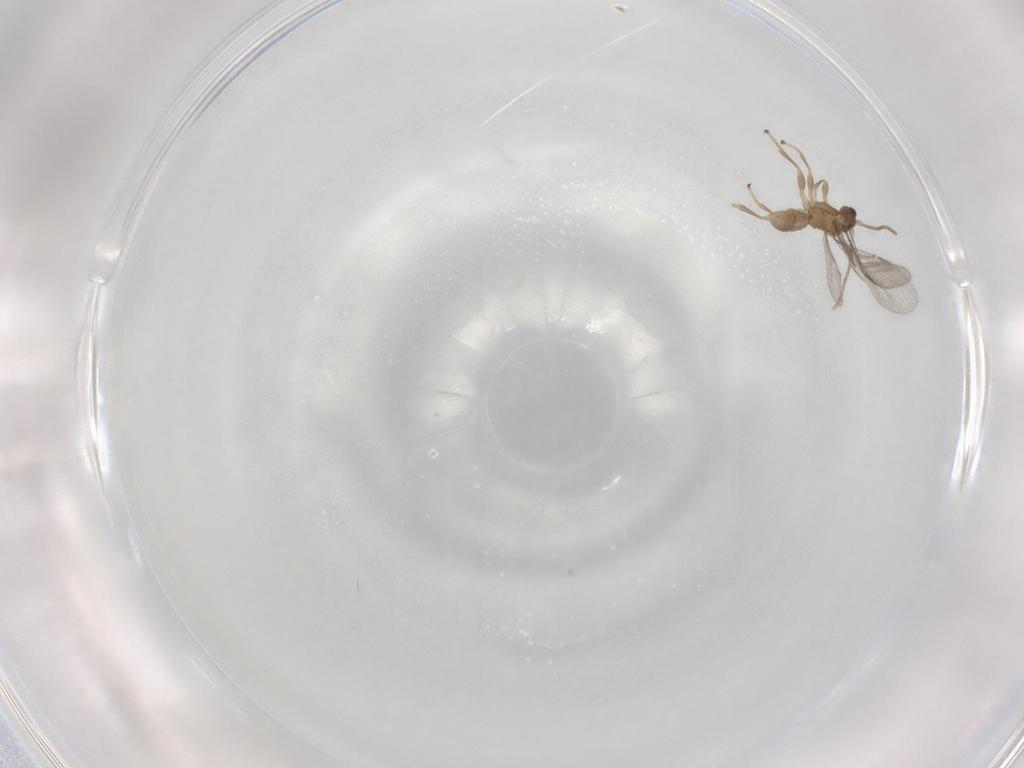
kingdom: Animalia
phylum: Arthropoda
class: Insecta
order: Hymenoptera
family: Ichneumonidae
